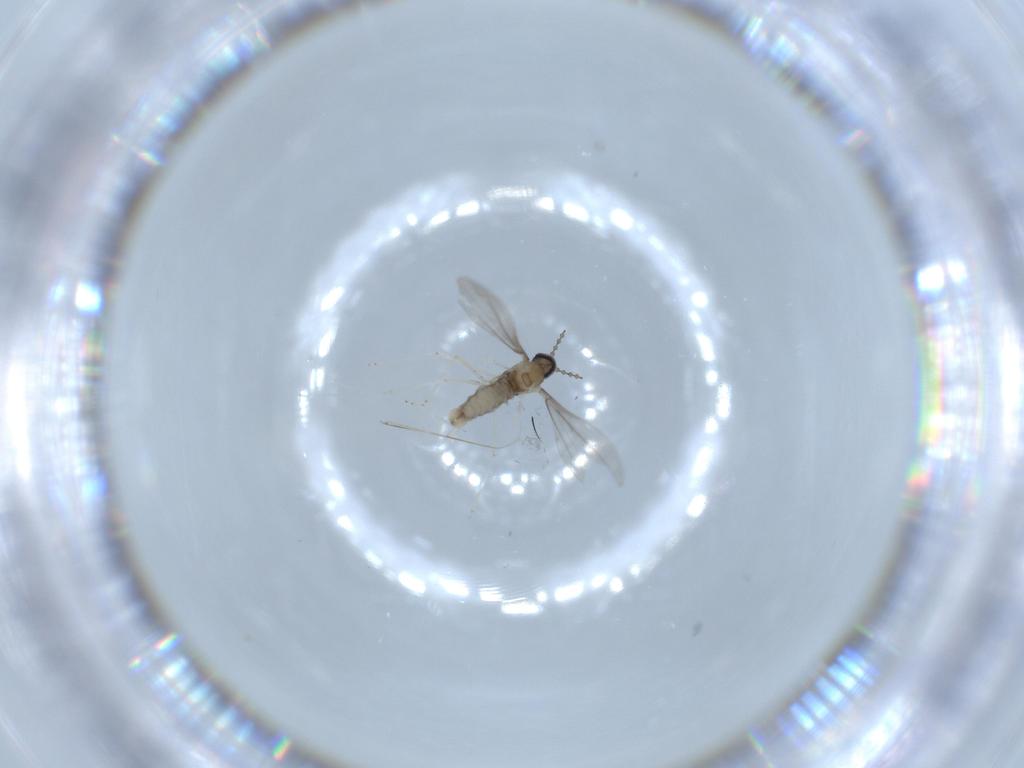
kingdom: Animalia
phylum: Arthropoda
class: Insecta
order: Diptera
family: Cecidomyiidae
